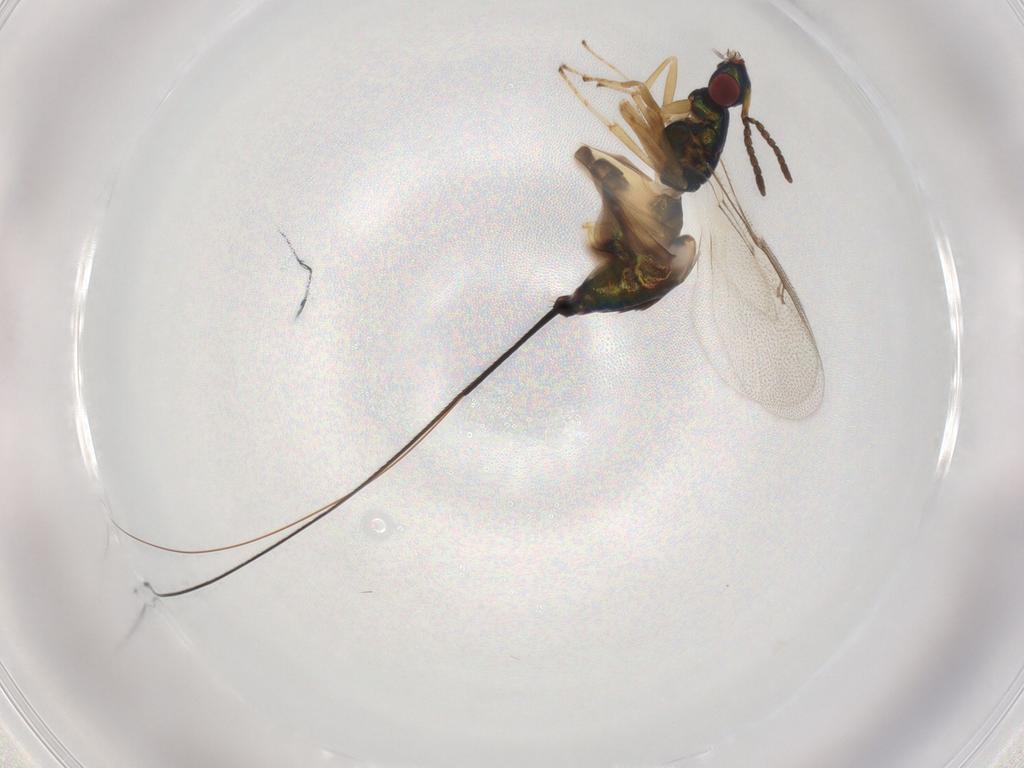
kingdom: Animalia
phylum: Arthropoda
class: Insecta
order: Hymenoptera
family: Pteromalidae
